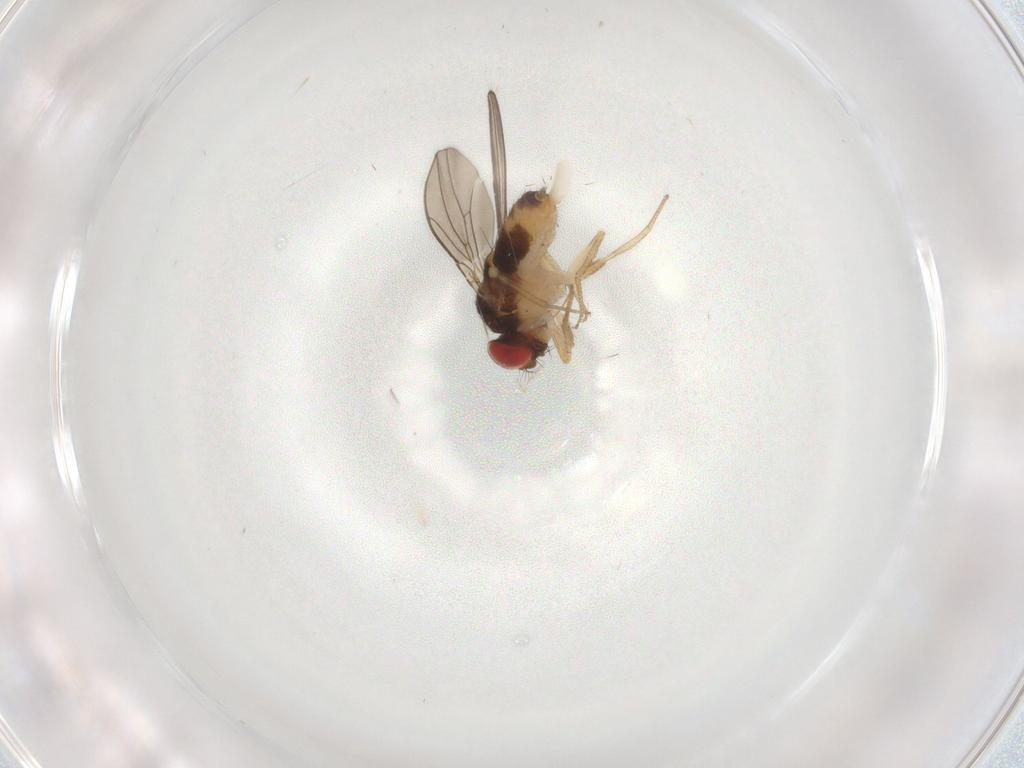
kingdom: Animalia
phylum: Arthropoda
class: Insecta
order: Diptera
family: Drosophilidae
